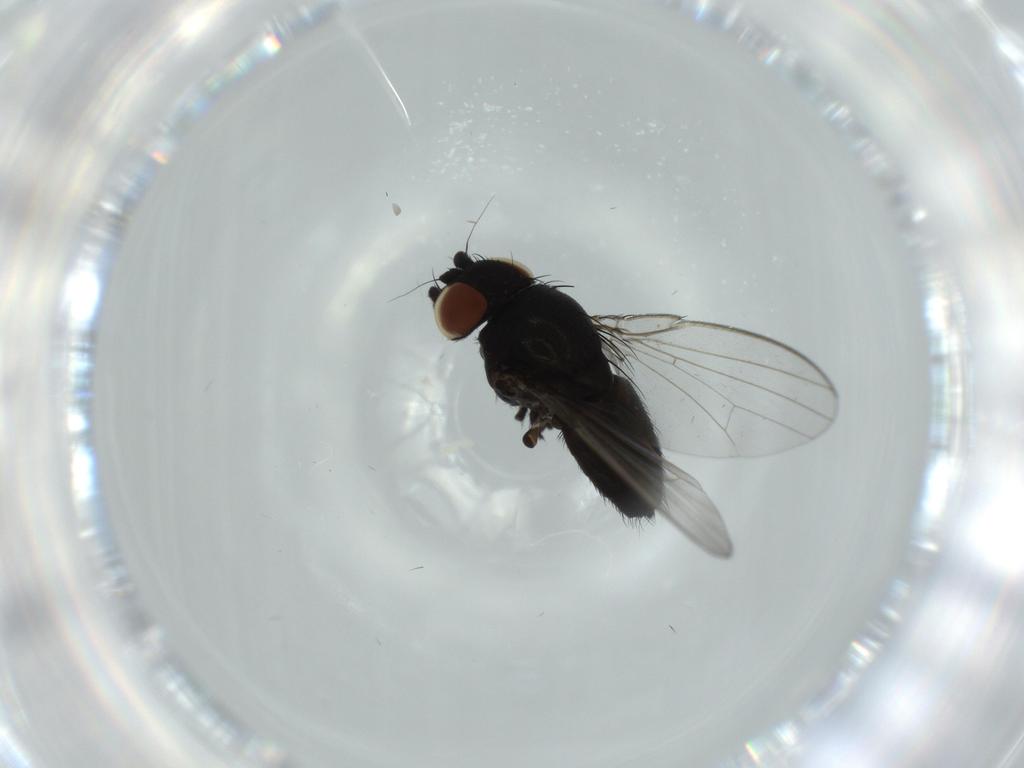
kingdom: Animalia
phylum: Arthropoda
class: Insecta
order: Diptera
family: Milichiidae
